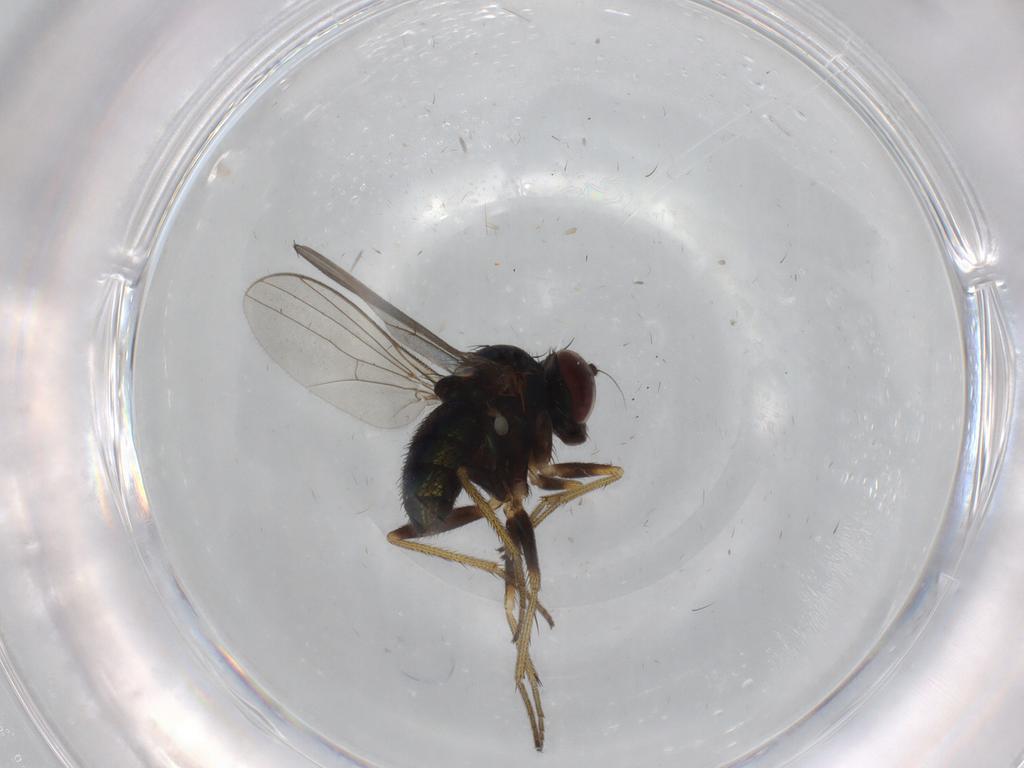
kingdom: Animalia
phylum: Arthropoda
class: Insecta
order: Diptera
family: Dolichopodidae
